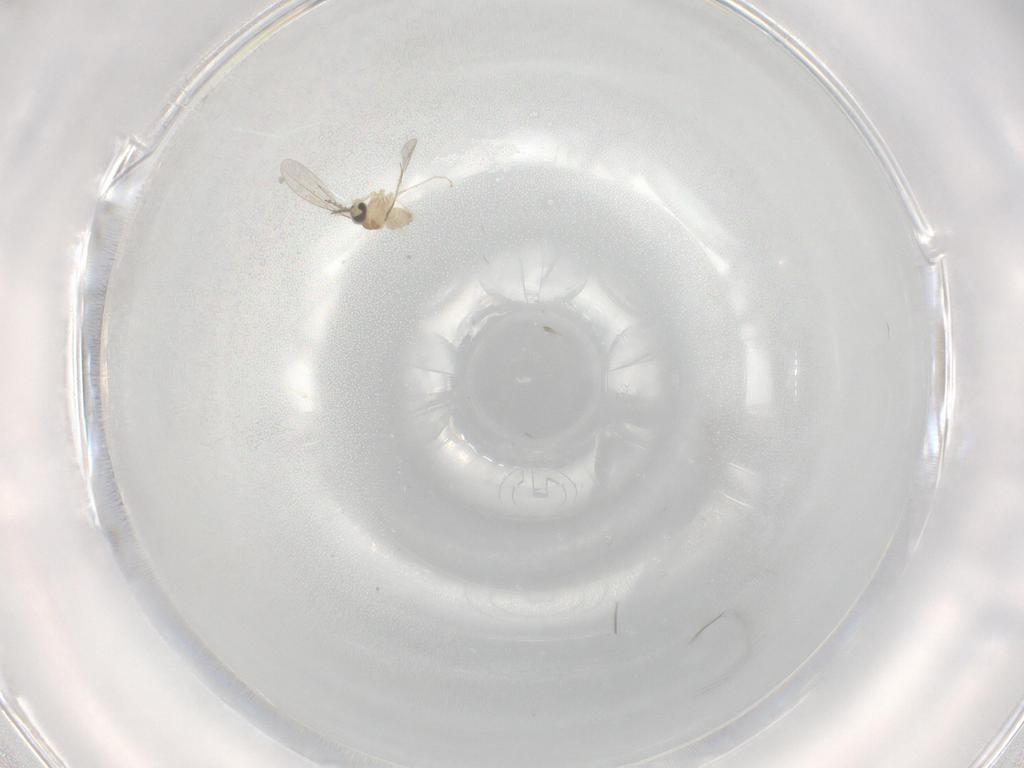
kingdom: Animalia
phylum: Arthropoda
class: Insecta
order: Diptera
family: Cecidomyiidae
